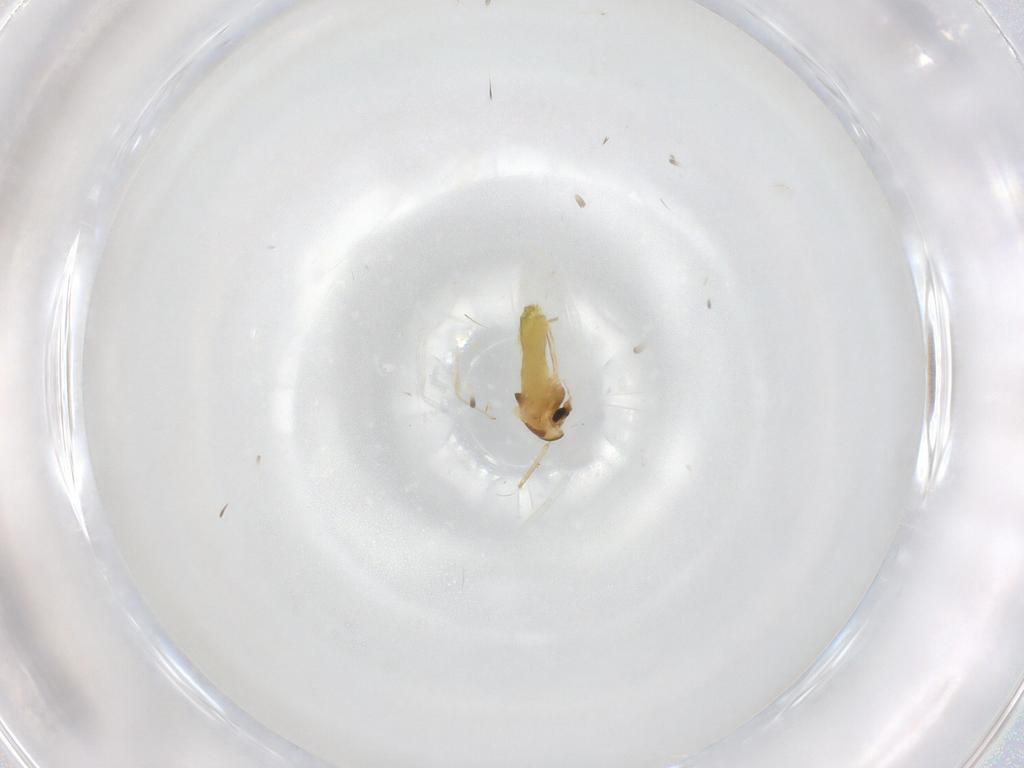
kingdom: Animalia
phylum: Arthropoda
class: Insecta
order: Diptera
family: Chironomidae
